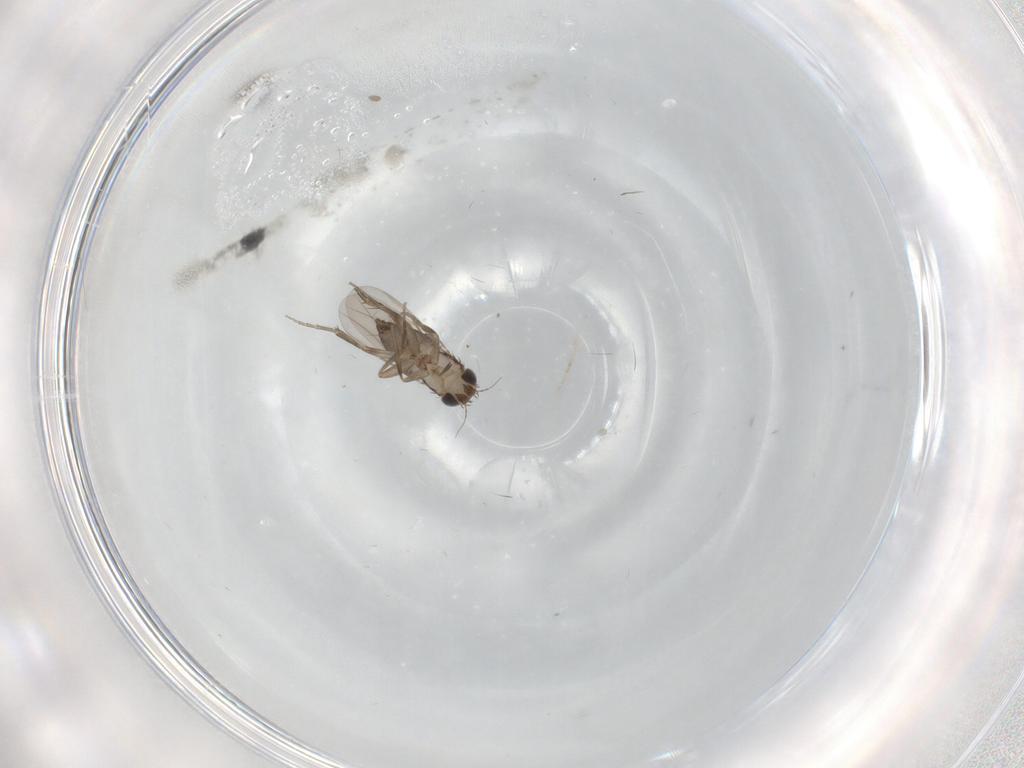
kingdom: Animalia
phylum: Arthropoda
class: Insecta
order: Diptera
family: Phoridae
